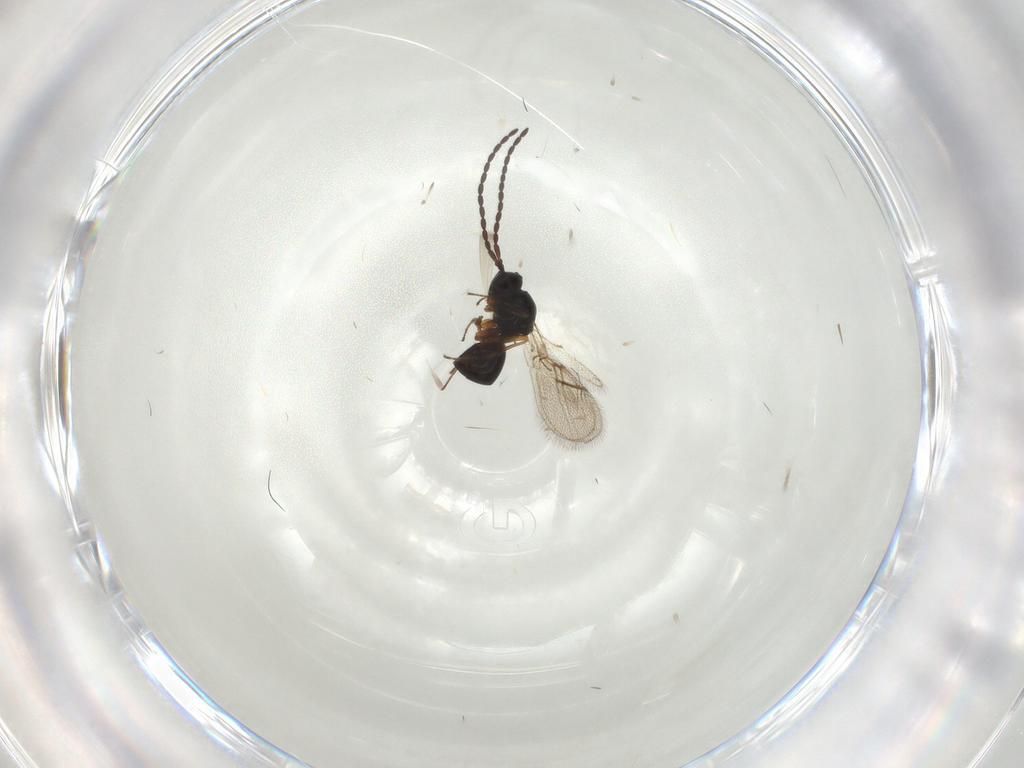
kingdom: Animalia
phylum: Arthropoda
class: Insecta
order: Hymenoptera
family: Figitidae
